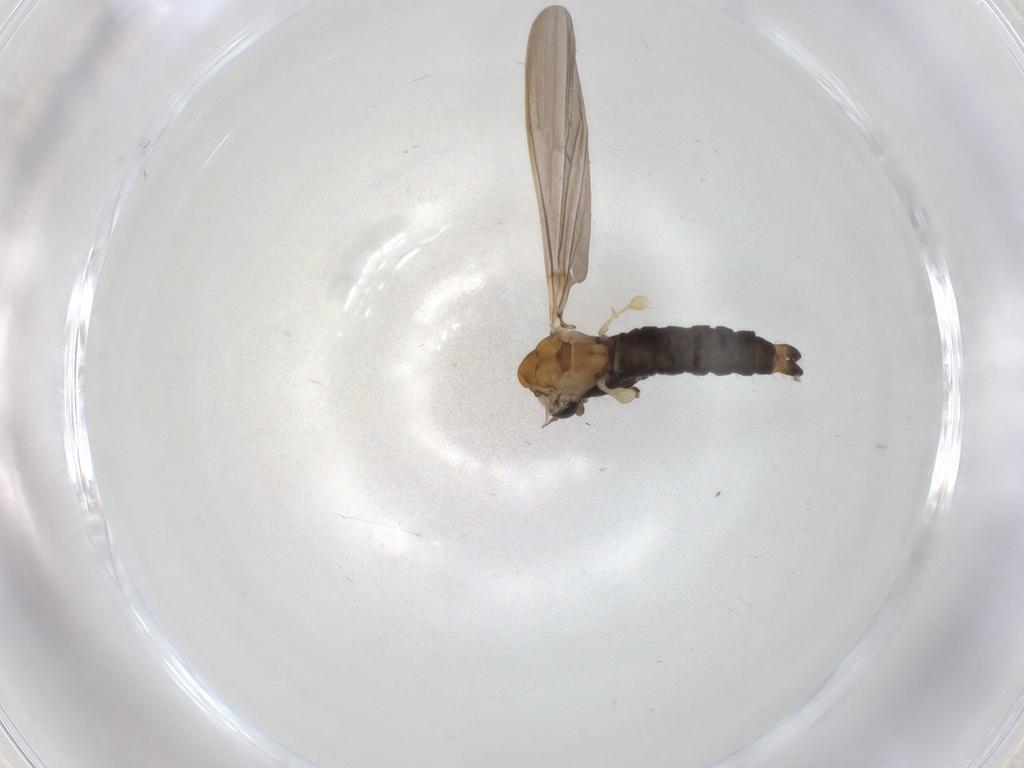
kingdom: Animalia
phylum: Arthropoda
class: Insecta
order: Diptera
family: Limoniidae
